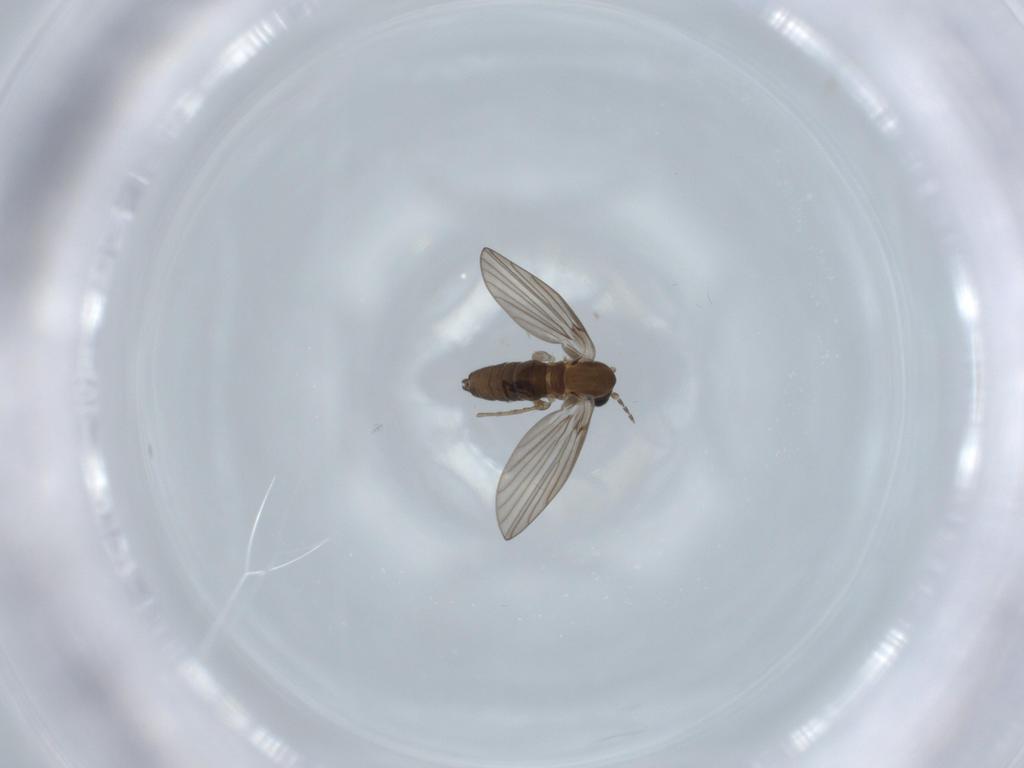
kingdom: Animalia
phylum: Arthropoda
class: Insecta
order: Diptera
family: Psychodidae
